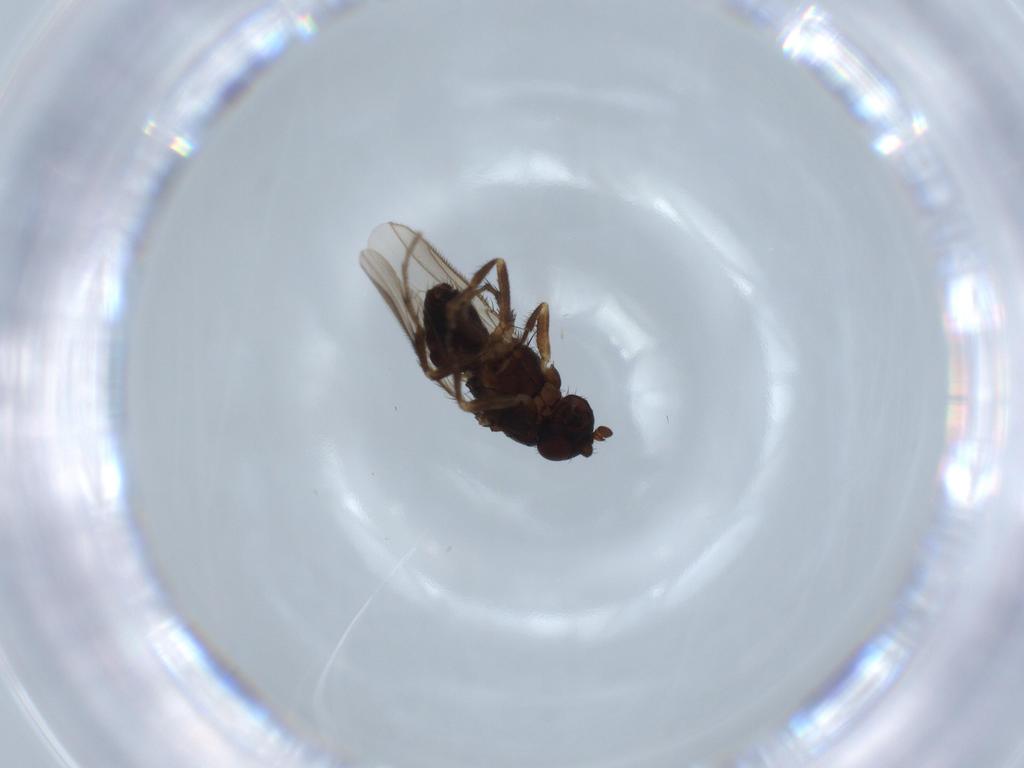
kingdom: Animalia
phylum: Arthropoda
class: Insecta
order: Diptera
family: Sphaeroceridae
